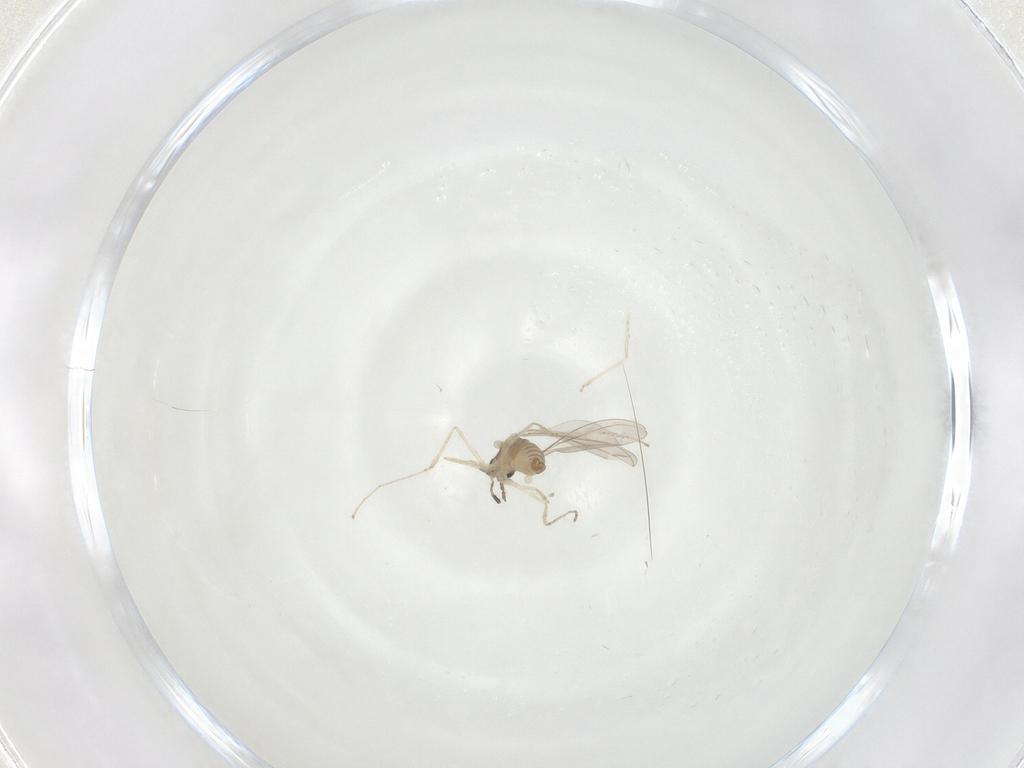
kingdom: Animalia
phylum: Arthropoda
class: Insecta
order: Diptera
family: Cecidomyiidae
